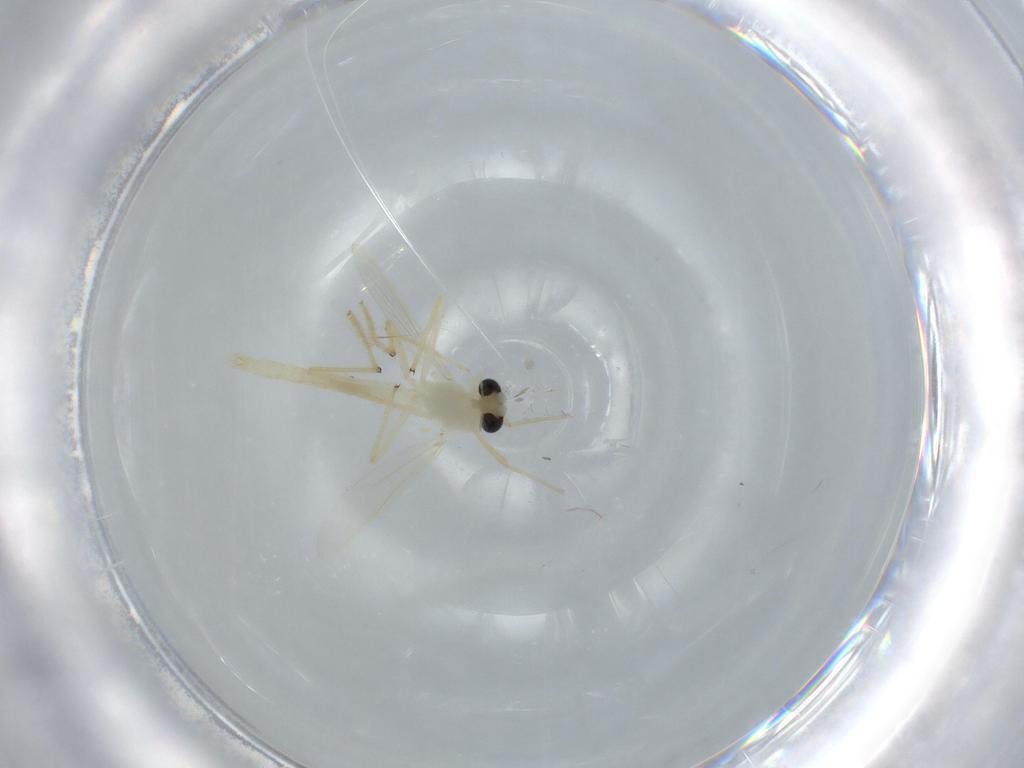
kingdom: Animalia
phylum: Arthropoda
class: Insecta
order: Diptera
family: Chironomidae
